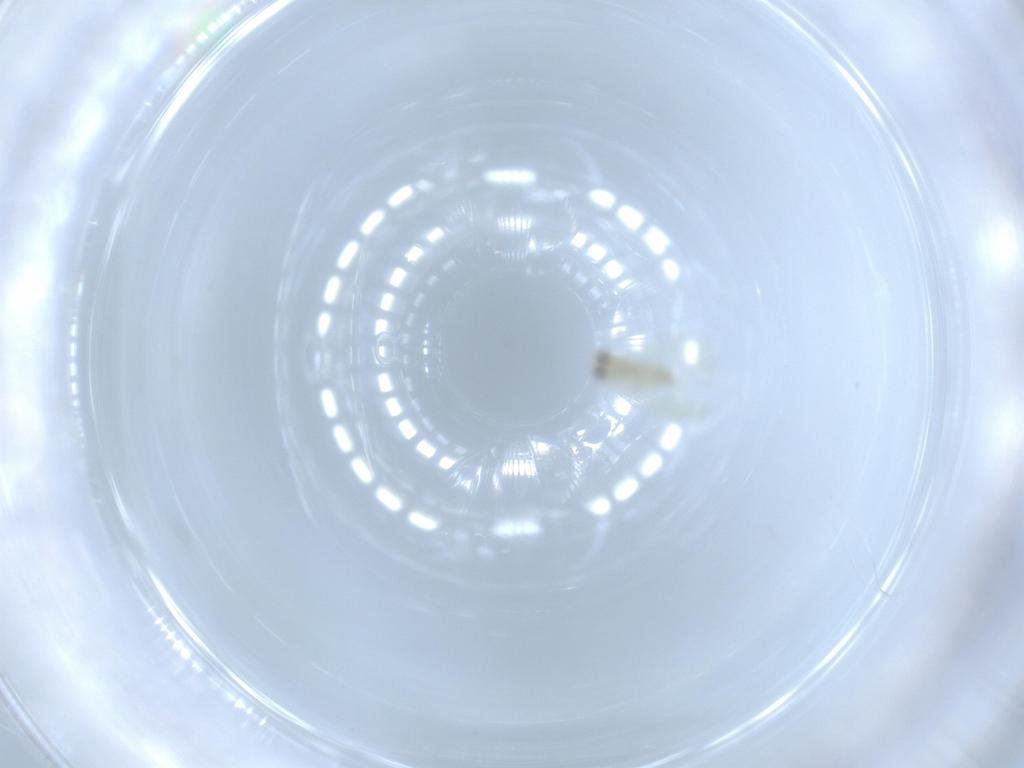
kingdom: Animalia
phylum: Arthropoda
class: Insecta
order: Hemiptera
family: Aleyrodidae
